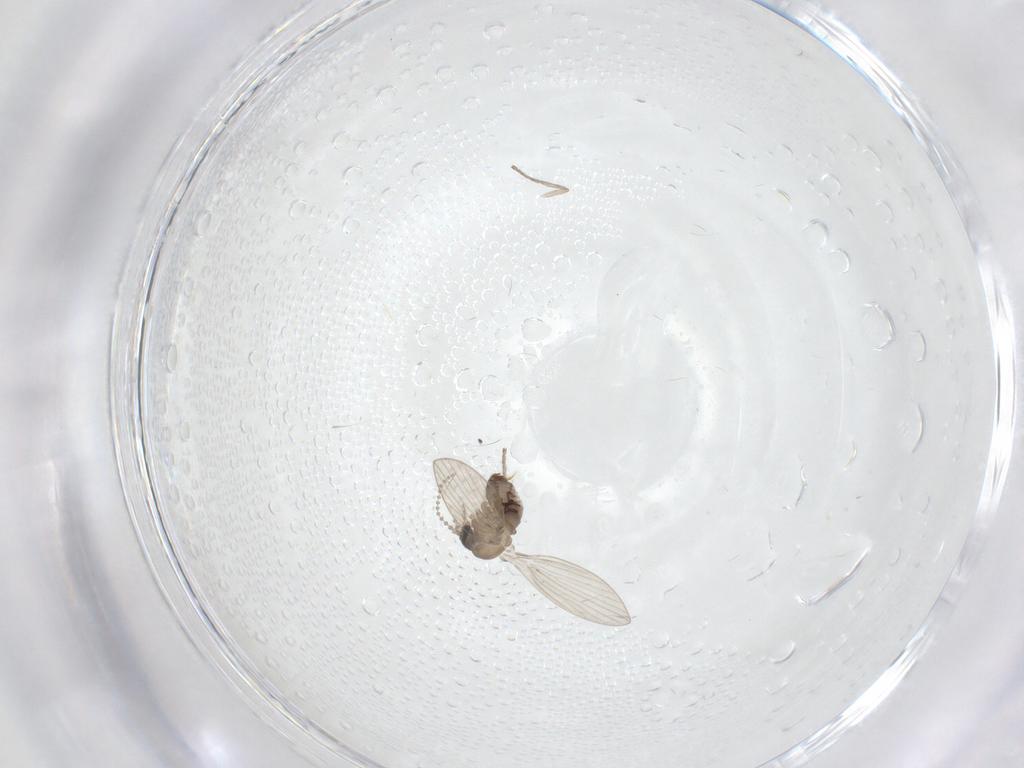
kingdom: Animalia
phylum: Arthropoda
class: Insecta
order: Diptera
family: Psychodidae
